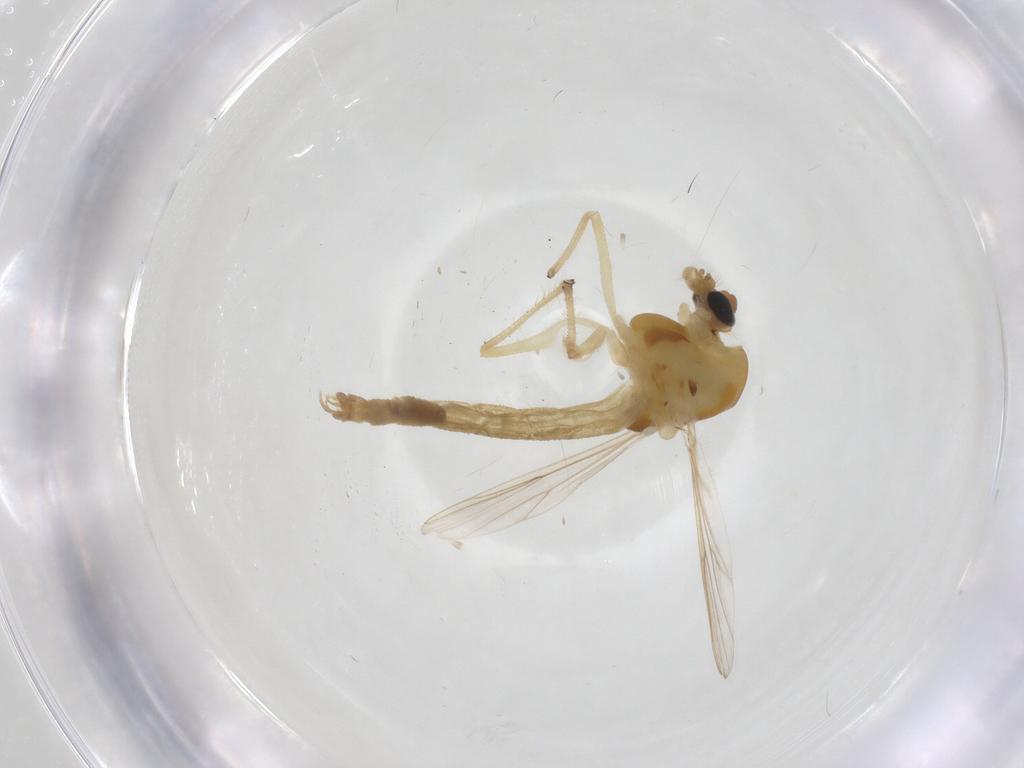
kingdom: Animalia
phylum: Arthropoda
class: Insecta
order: Diptera
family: Chironomidae
